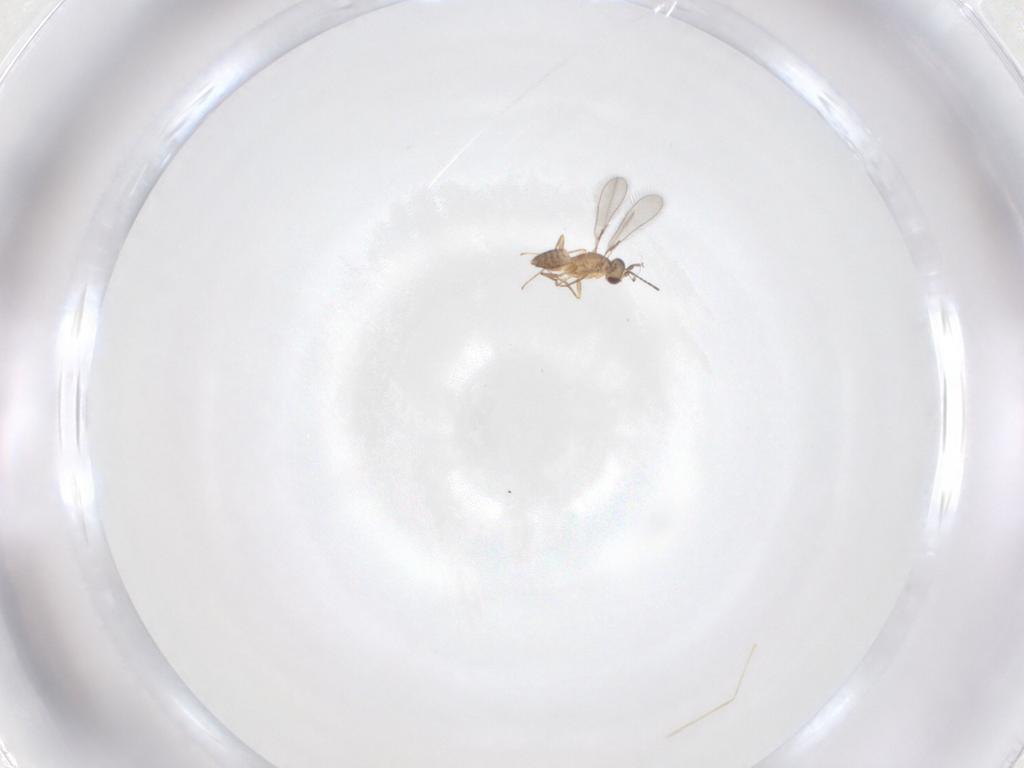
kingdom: Animalia
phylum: Arthropoda
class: Insecta
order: Hymenoptera
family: Mymaridae
